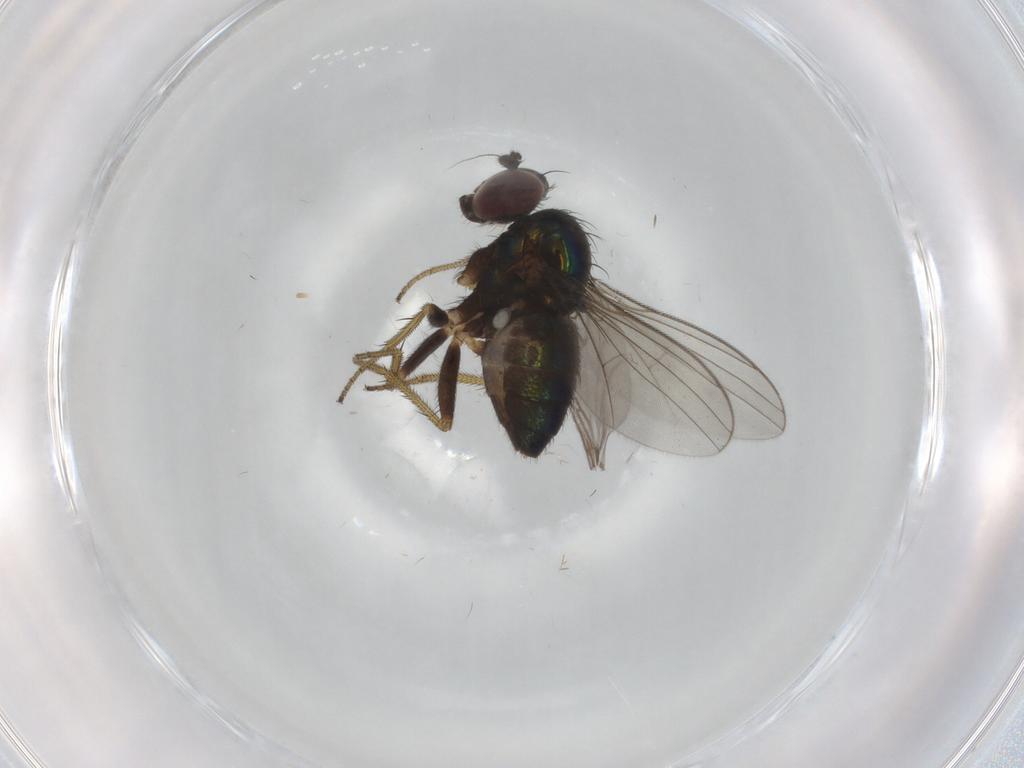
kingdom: Animalia
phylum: Arthropoda
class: Insecta
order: Diptera
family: Sciaridae
